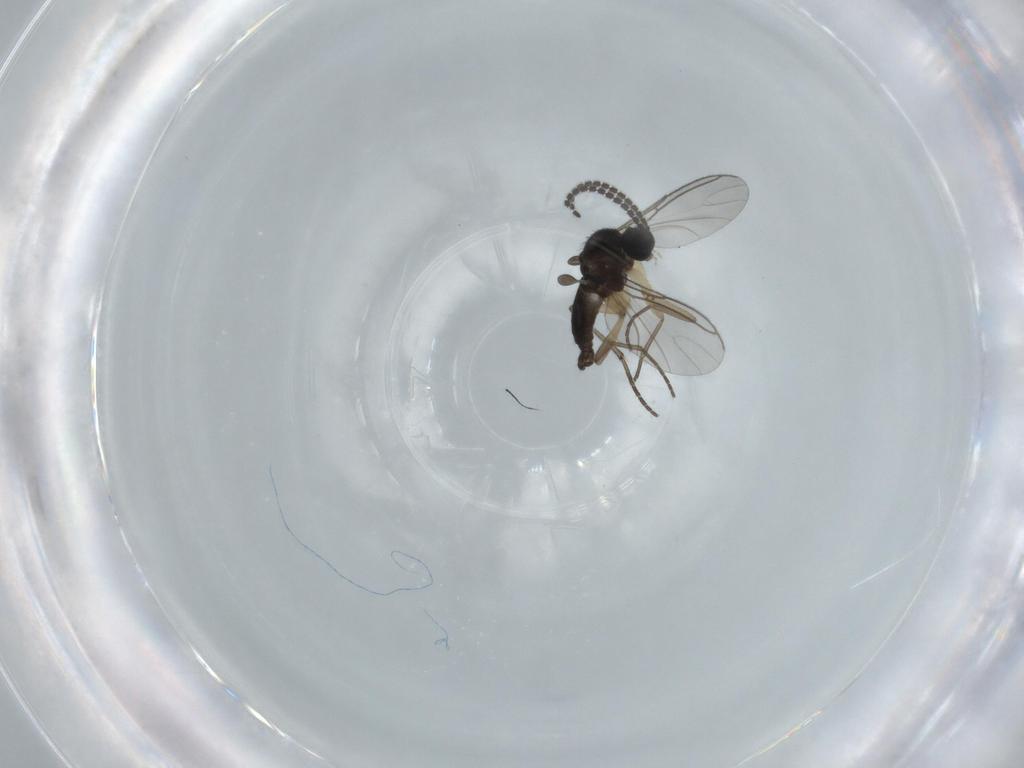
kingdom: Animalia
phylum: Arthropoda
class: Insecta
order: Diptera
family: Sciaridae
